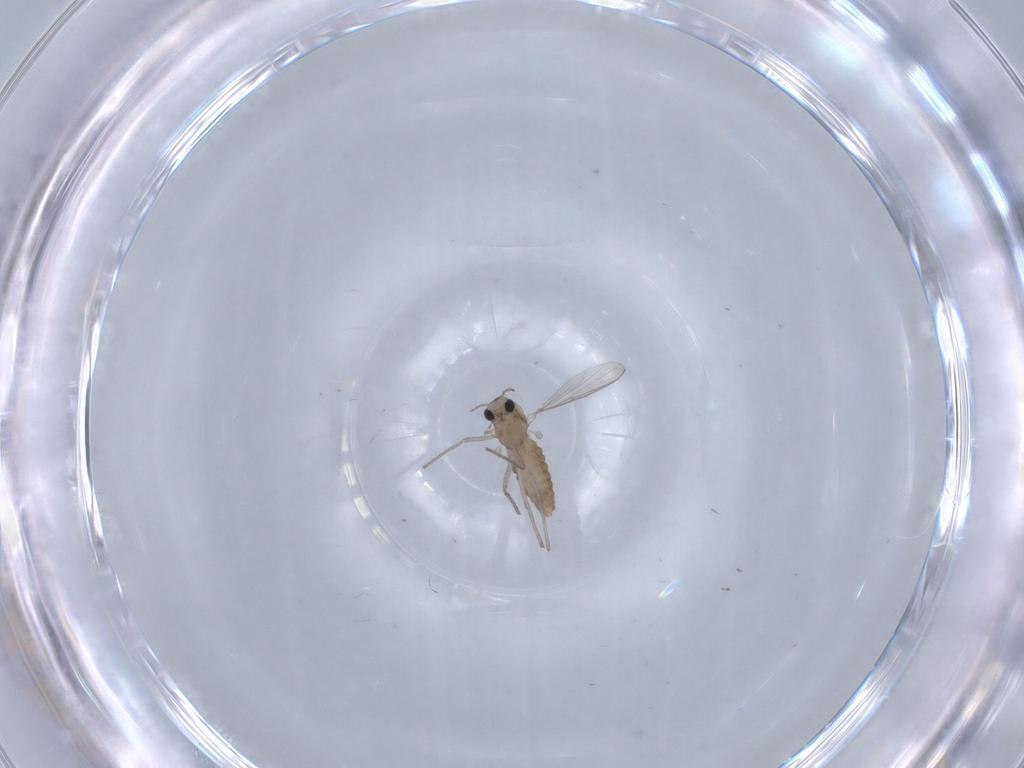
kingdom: Animalia
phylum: Arthropoda
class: Insecta
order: Diptera
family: Chironomidae
